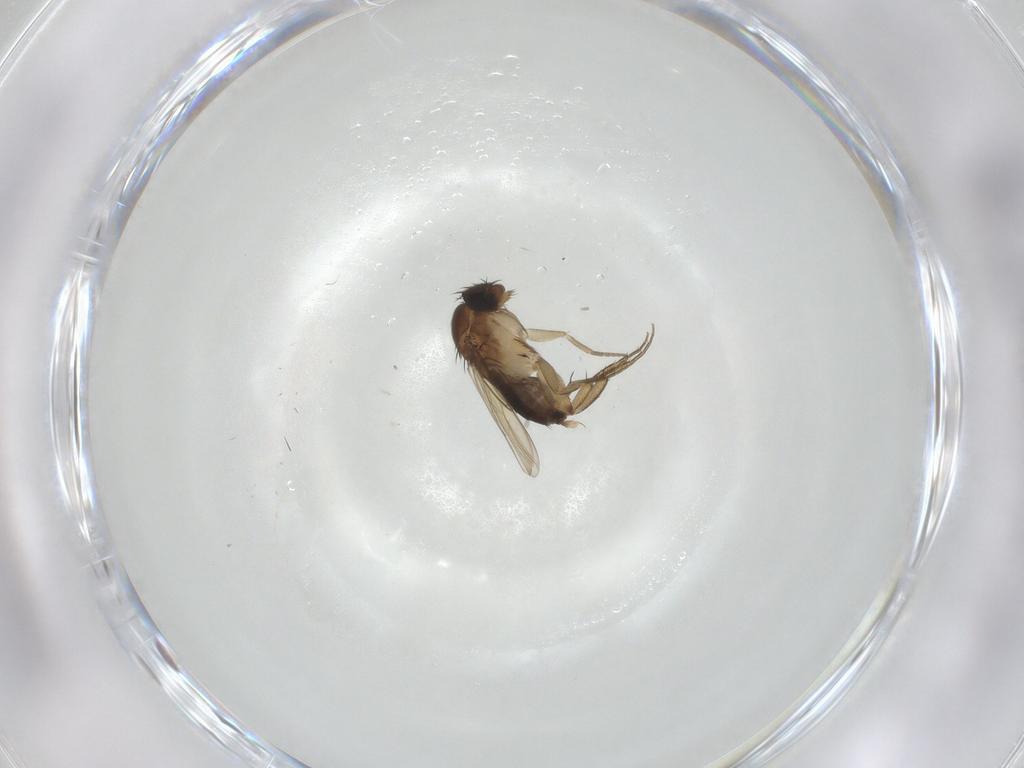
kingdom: Animalia
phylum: Arthropoda
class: Insecta
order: Diptera
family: Phoridae
